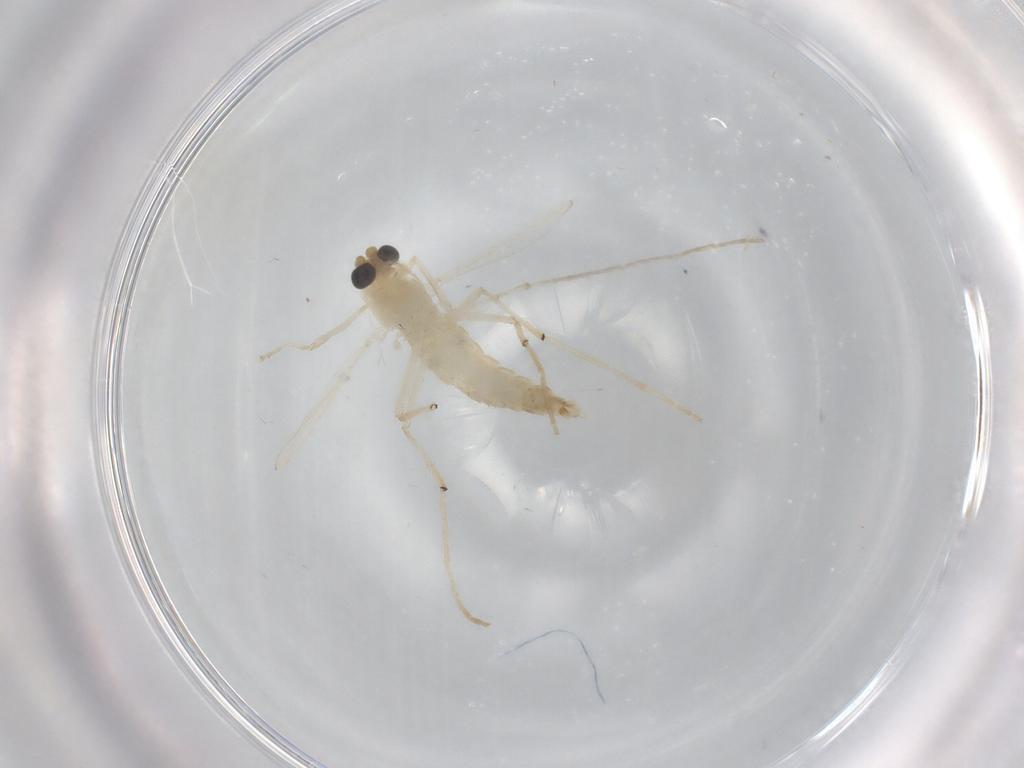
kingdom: Animalia
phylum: Arthropoda
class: Insecta
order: Diptera
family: Chironomidae
